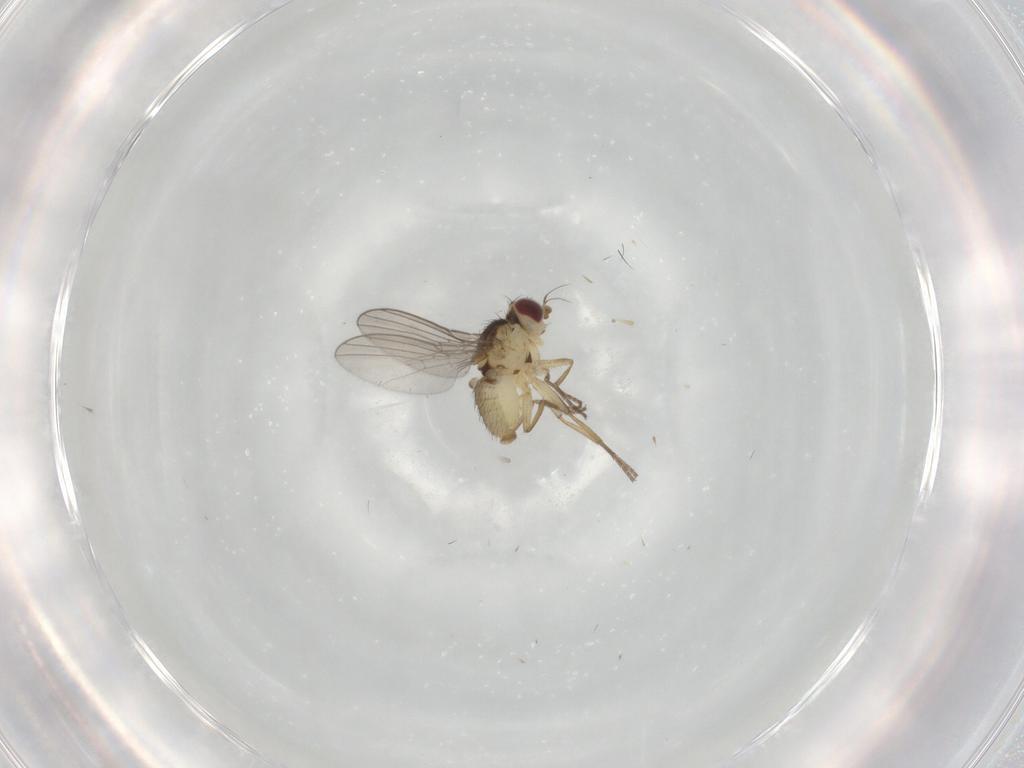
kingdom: Animalia
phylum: Arthropoda
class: Insecta
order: Diptera
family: Agromyzidae
